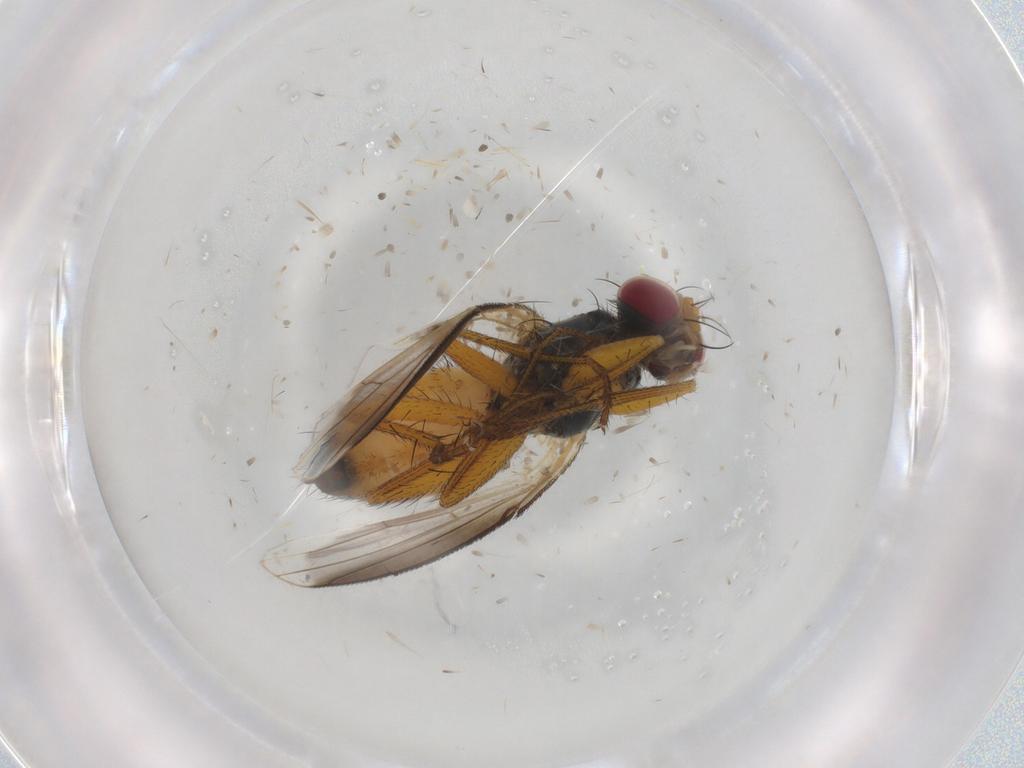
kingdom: Animalia
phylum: Arthropoda
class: Insecta
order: Diptera
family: Muscidae
